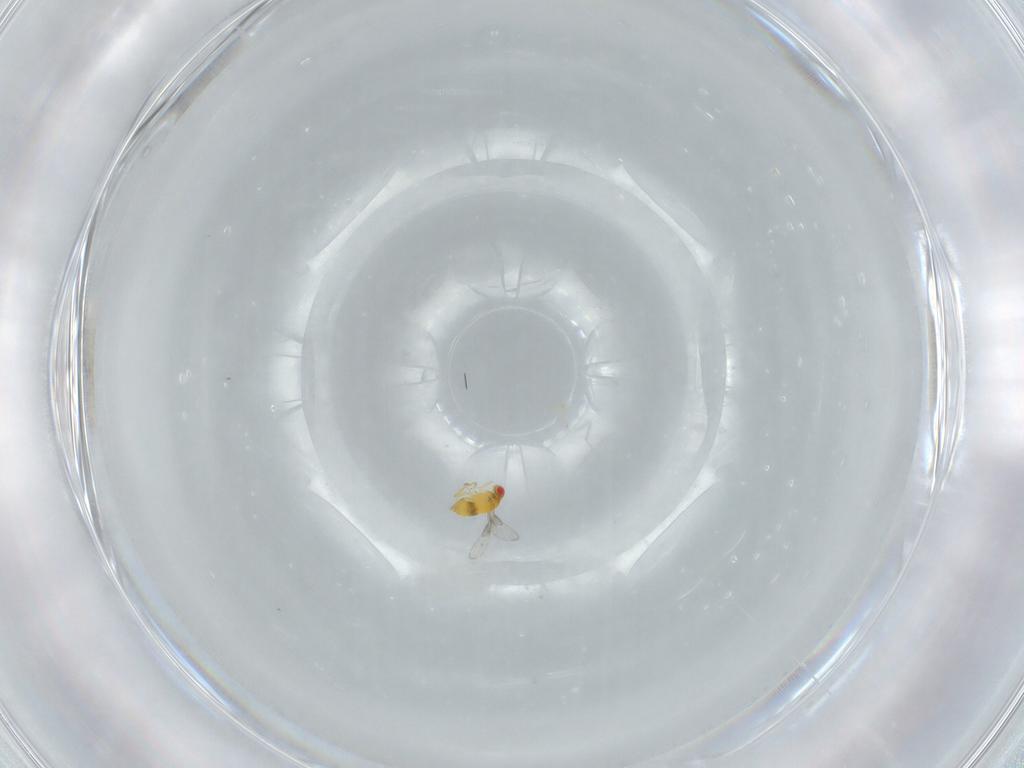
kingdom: Animalia
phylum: Arthropoda
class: Insecta
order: Hymenoptera
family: Trichogrammatidae
